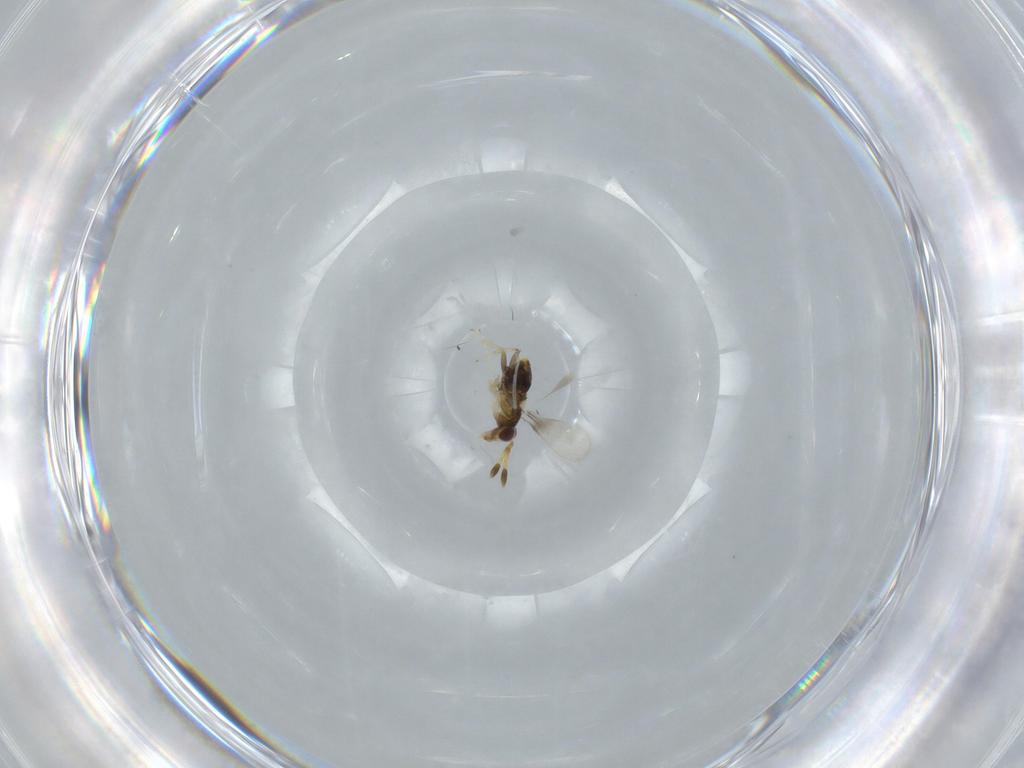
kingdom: Animalia
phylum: Arthropoda
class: Insecta
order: Hymenoptera
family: Aphelinidae
